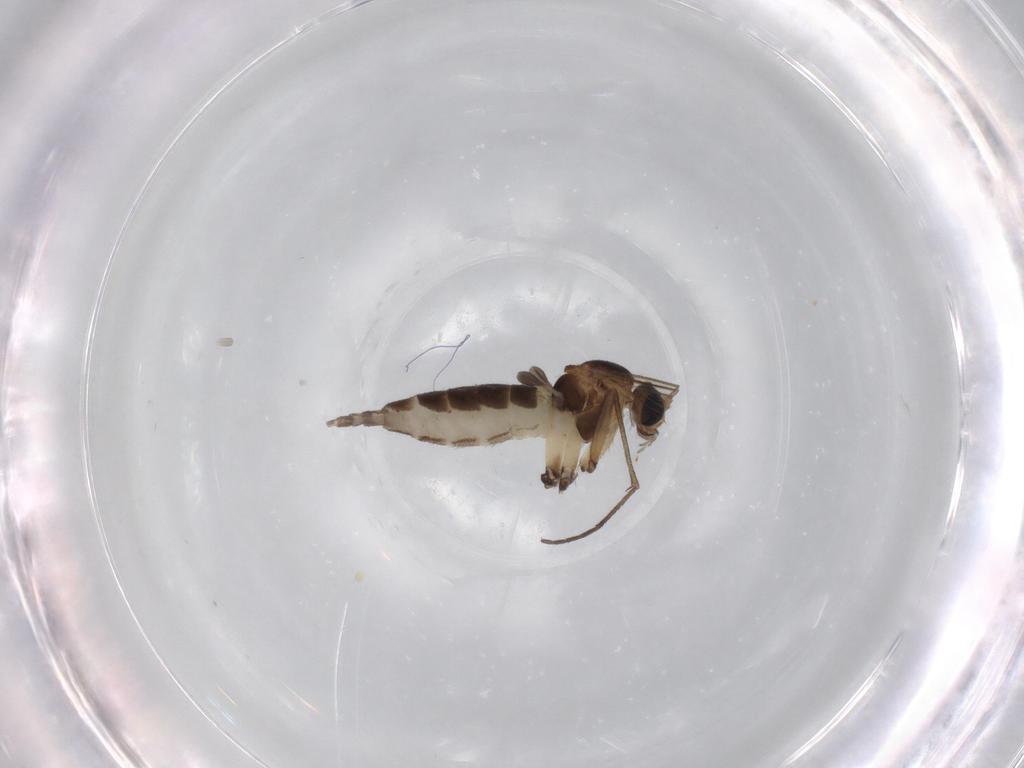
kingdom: Animalia
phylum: Arthropoda
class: Insecta
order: Diptera
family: Sciaridae
